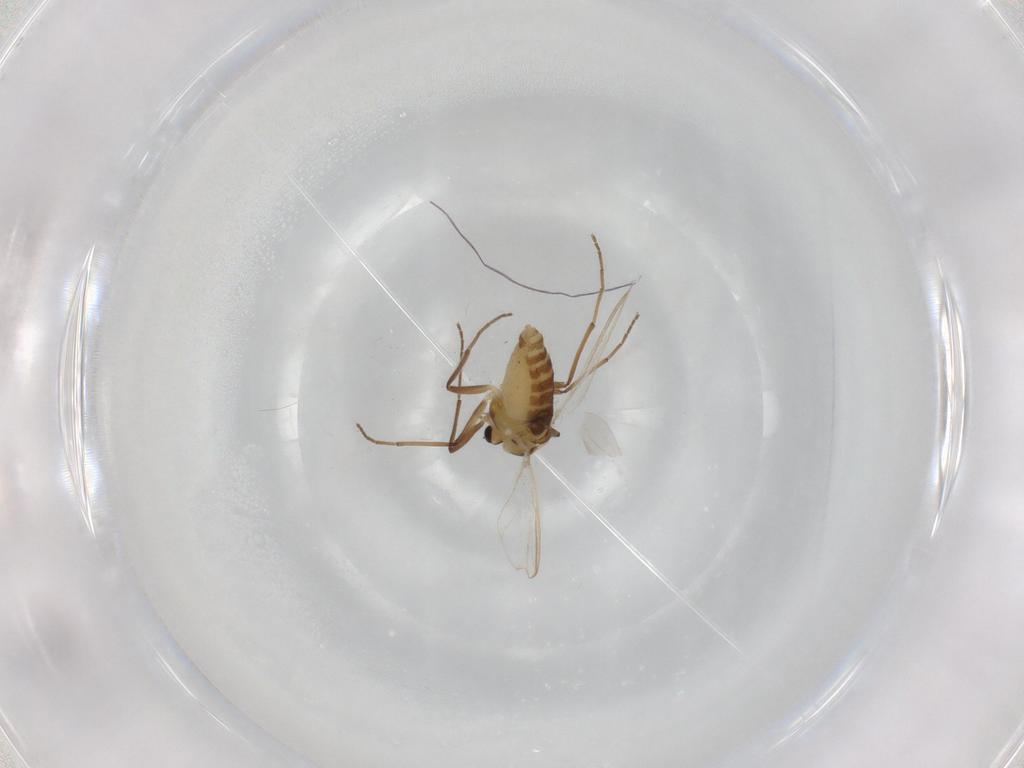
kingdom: Animalia
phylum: Arthropoda
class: Insecta
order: Diptera
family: Chironomidae
